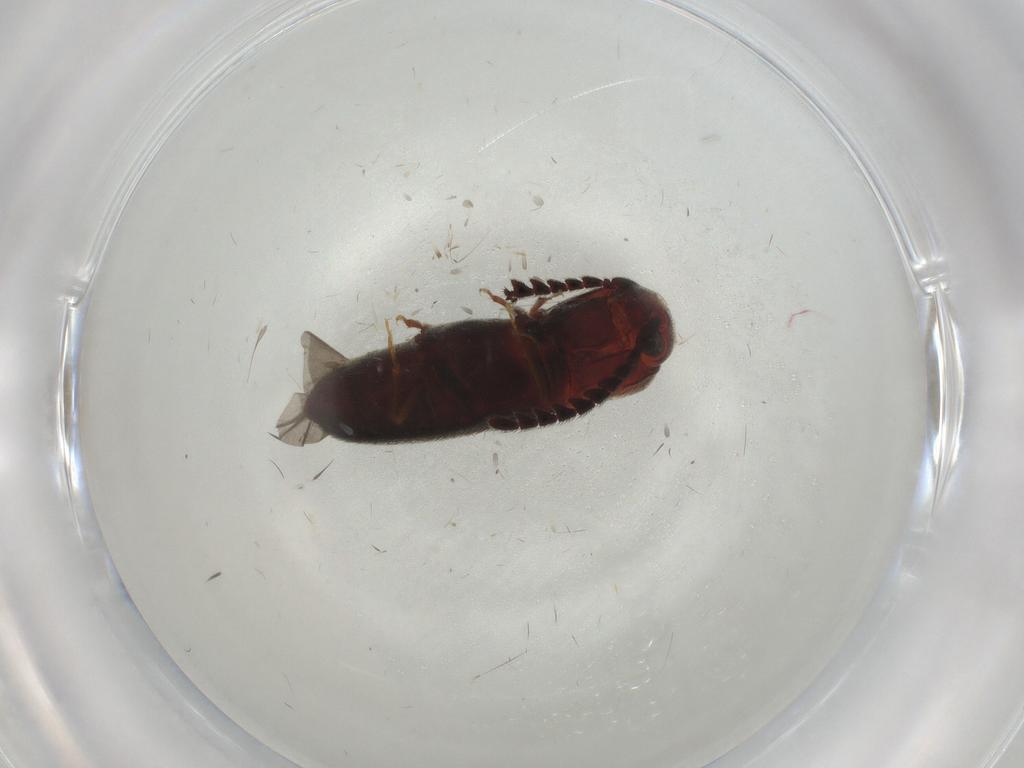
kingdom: Animalia
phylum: Arthropoda
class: Insecta
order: Coleoptera
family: Eucnemidae
